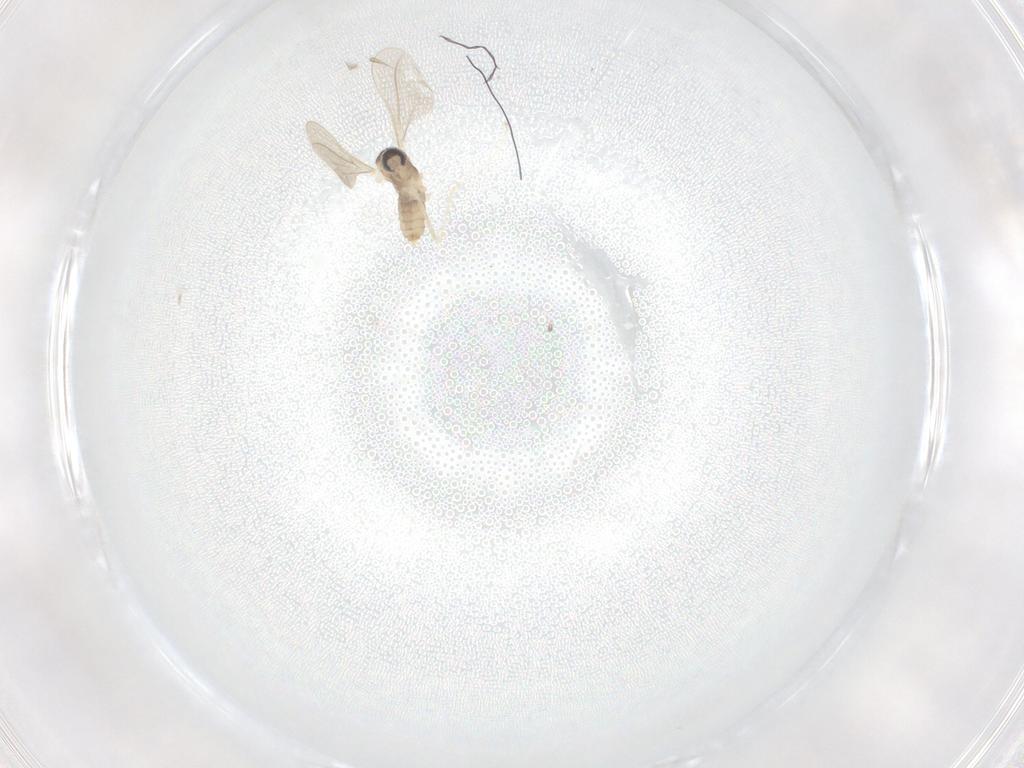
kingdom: Animalia
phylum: Arthropoda
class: Insecta
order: Diptera
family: Cecidomyiidae
